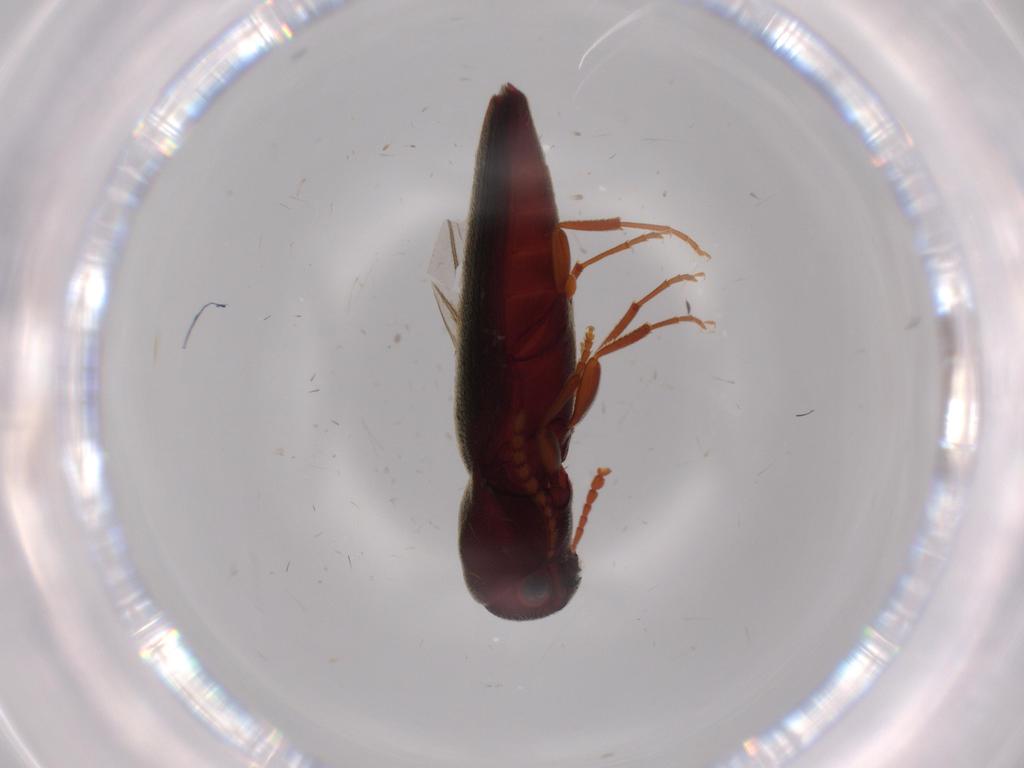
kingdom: Animalia
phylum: Arthropoda
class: Insecta
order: Coleoptera
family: Eucnemidae
